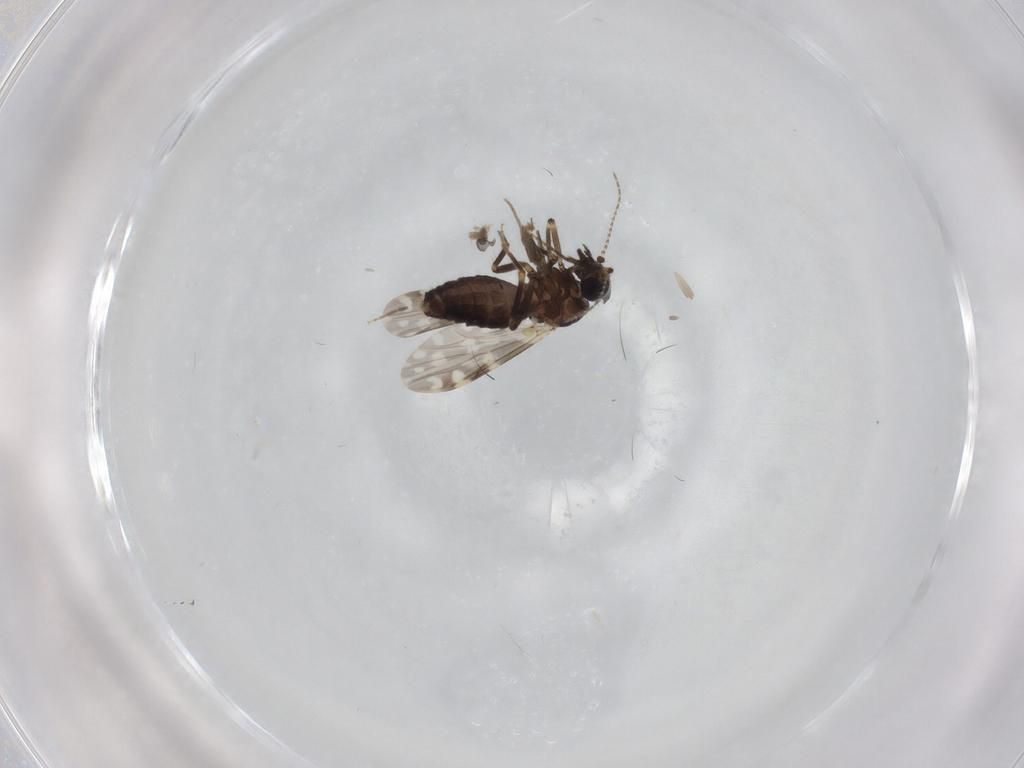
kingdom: Animalia
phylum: Arthropoda
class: Insecta
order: Diptera
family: Ceratopogonidae
